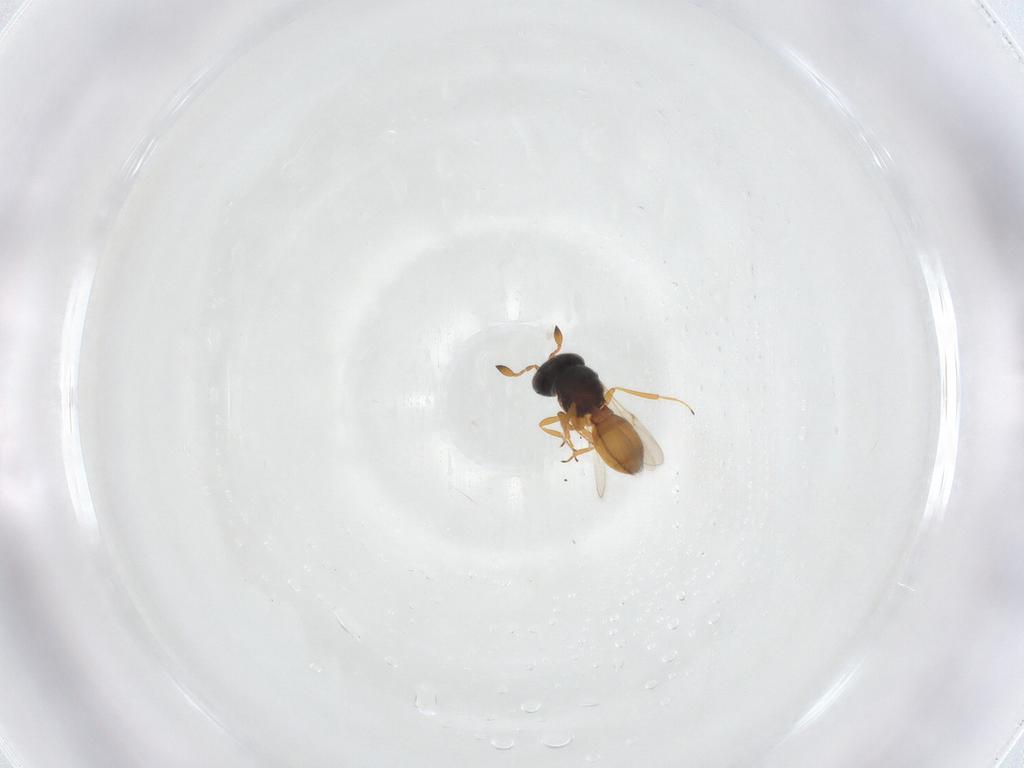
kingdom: Animalia
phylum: Arthropoda
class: Insecta
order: Hymenoptera
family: Scelionidae
